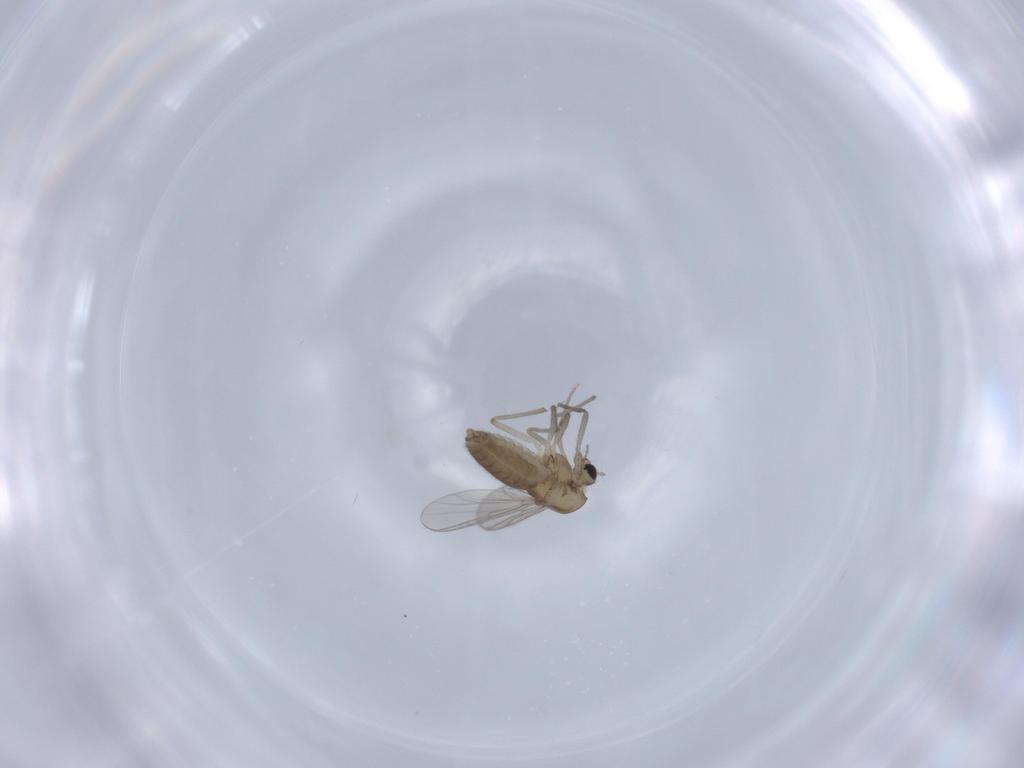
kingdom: Animalia
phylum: Arthropoda
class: Insecta
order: Diptera
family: Chironomidae
